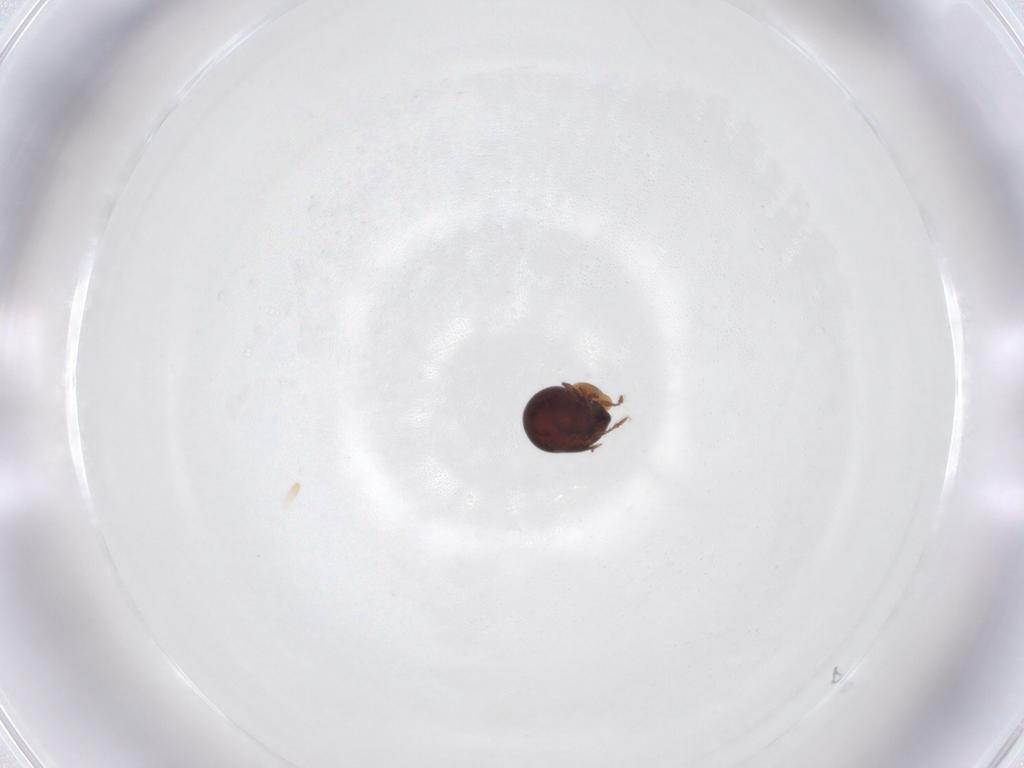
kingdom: Animalia
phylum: Arthropoda
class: Arachnida
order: Sarcoptiformes
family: Galumnidae
